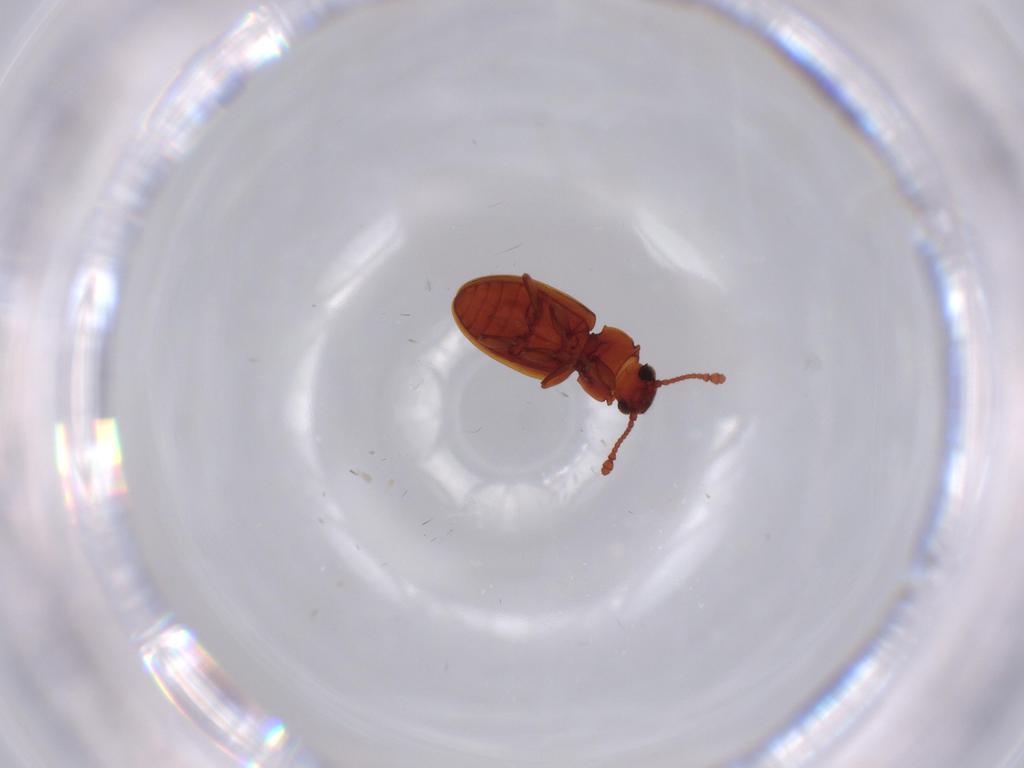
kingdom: Animalia
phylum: Arthropoda
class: Insecta
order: Coleoptera
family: Silvanidae
